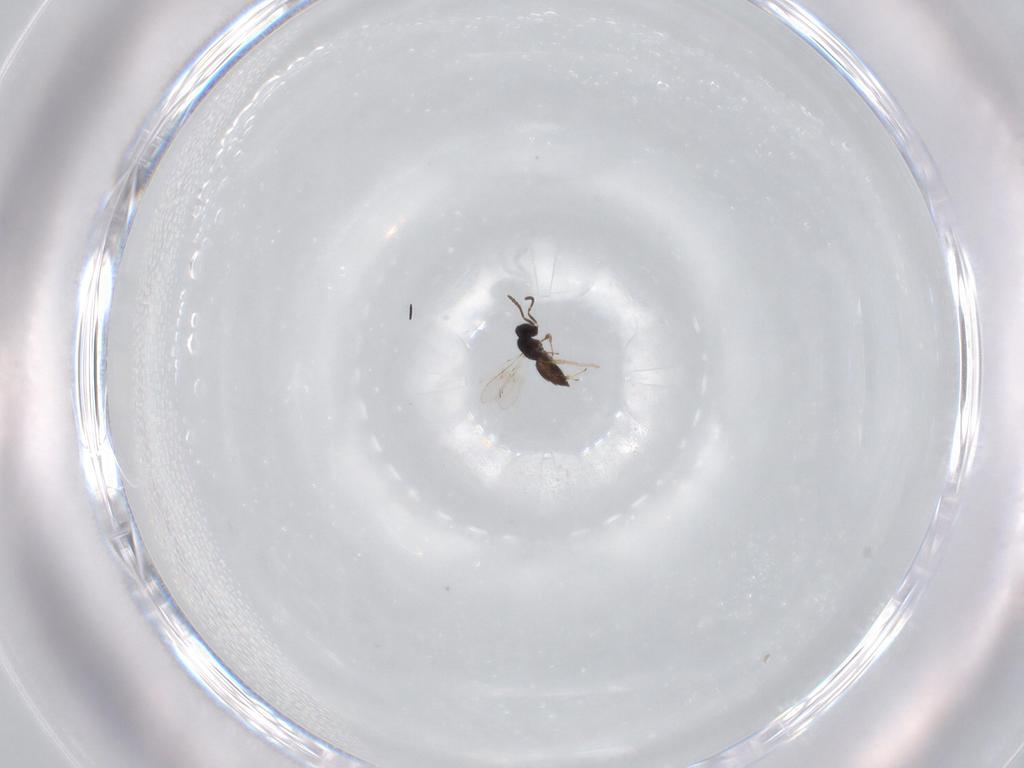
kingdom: Animalia
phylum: Arthropoda
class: Insecta
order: Hymenoptera
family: Scelionidae
